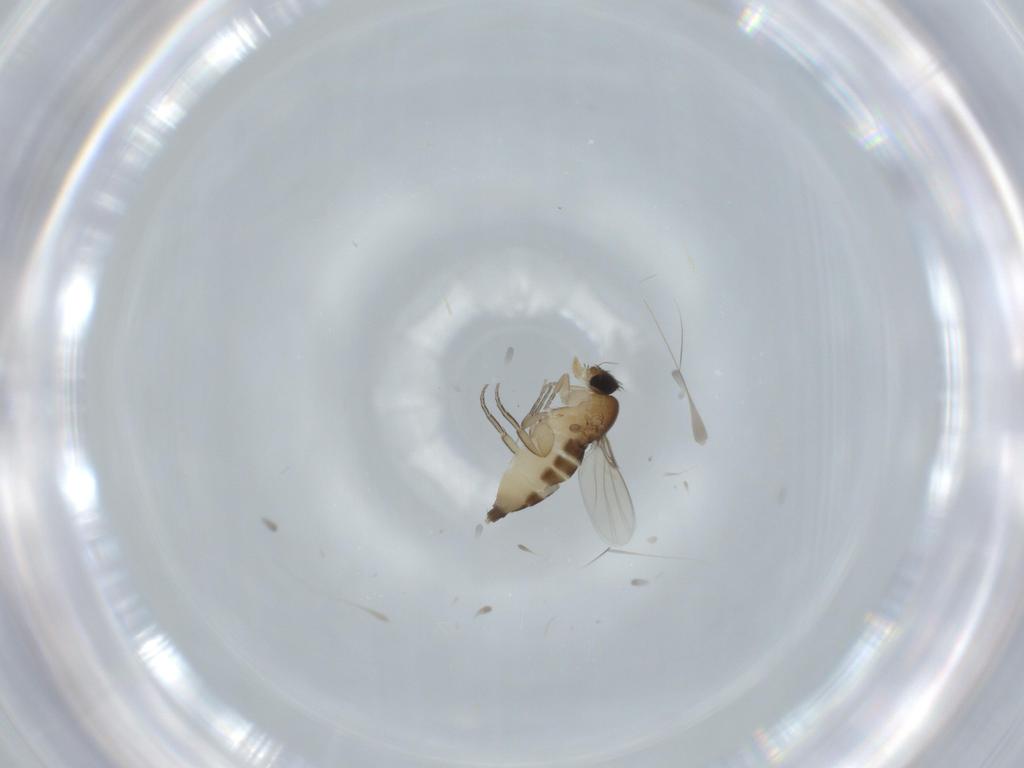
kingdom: Animalia
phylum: Arthropoda
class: Insecta
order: Diptera
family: Phoridae
